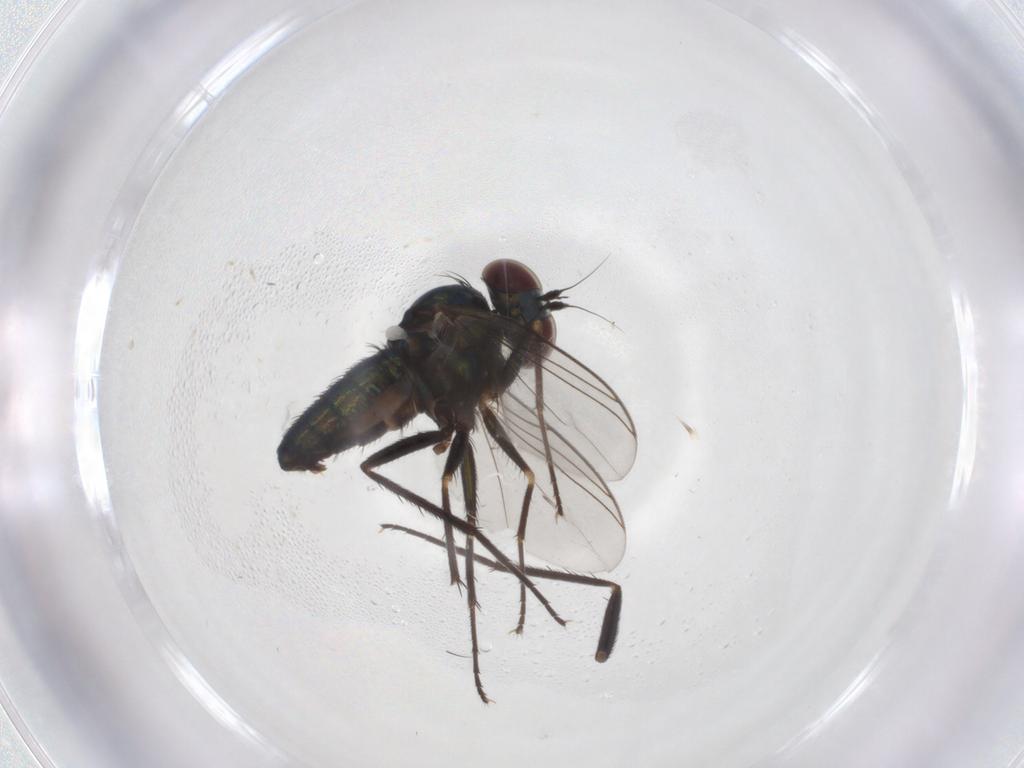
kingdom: Animalia
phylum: Arthropoda
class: Insecta
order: Diptera
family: Dolichopodidae
